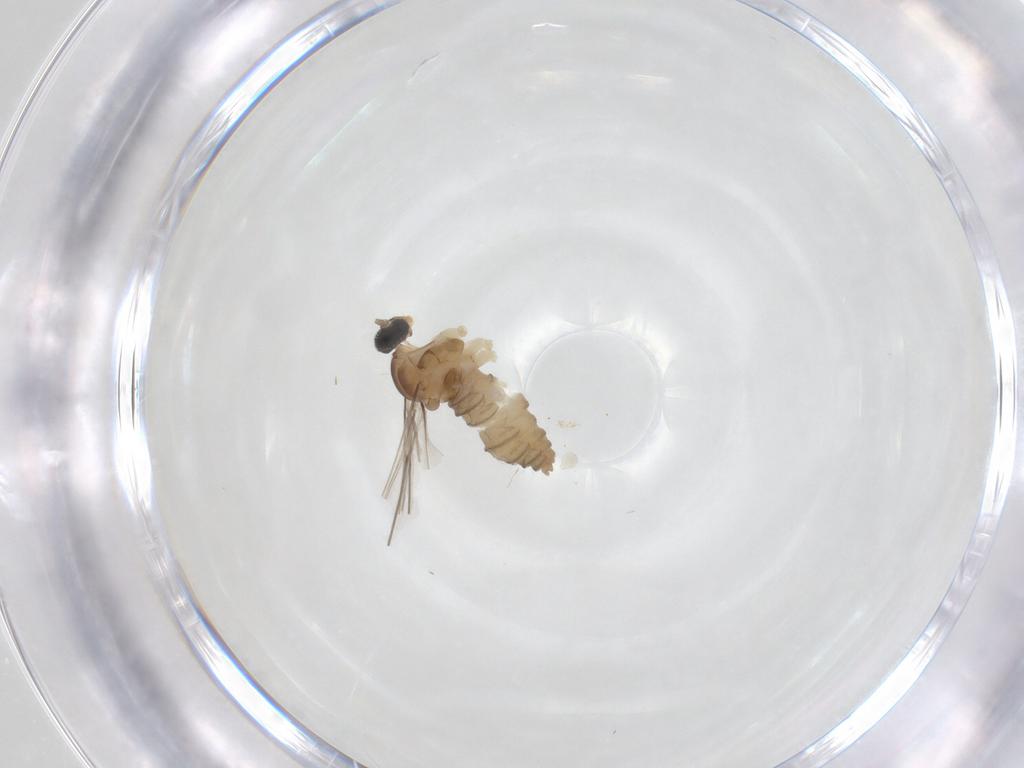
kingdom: Animalia
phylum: Arthropoda
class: Insecta
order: Diptera
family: Cecidomyiidae
